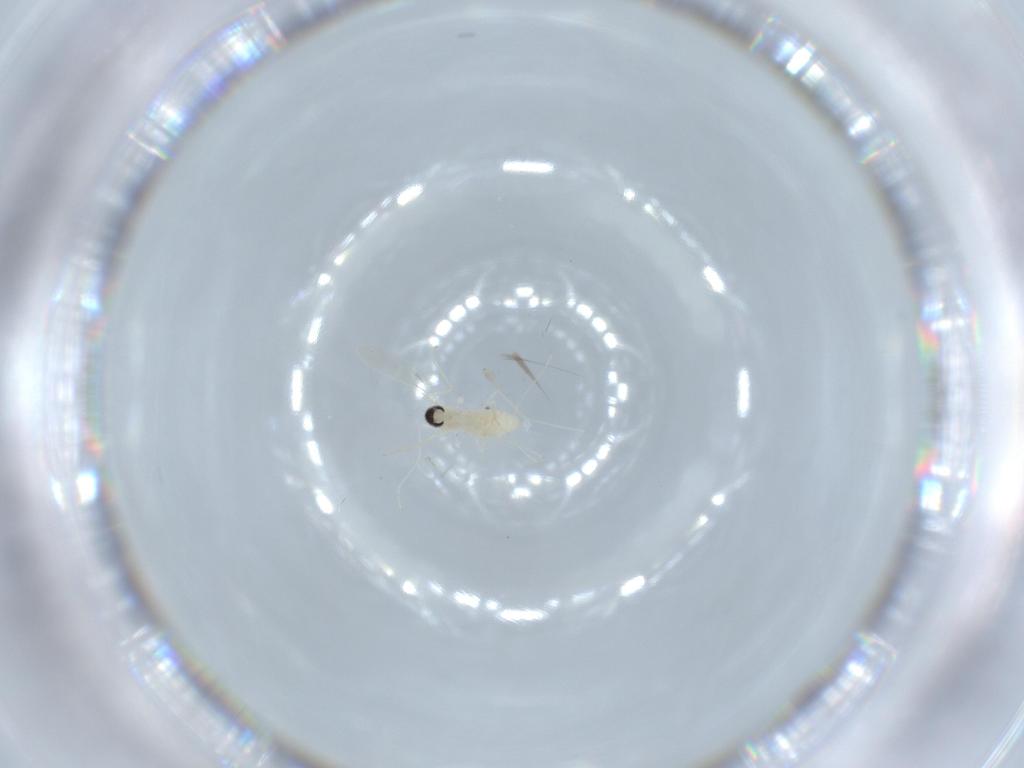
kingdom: Animalia
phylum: Arthropoda
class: Insecta
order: Diptera
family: Cecidomyiidae
